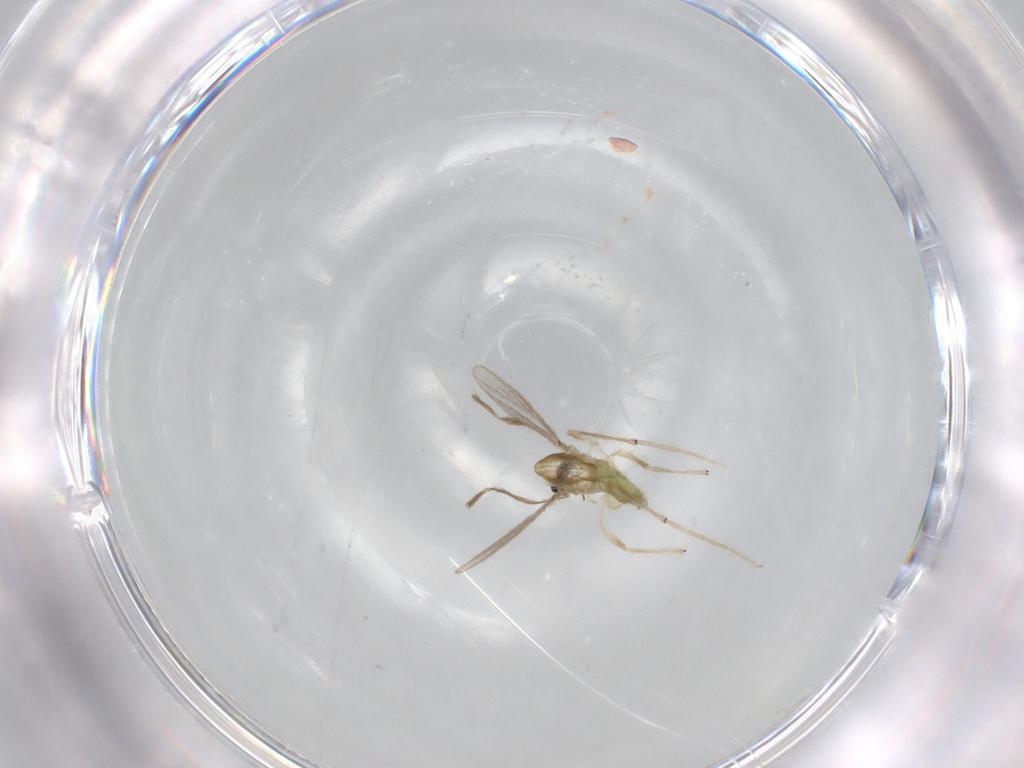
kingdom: Animalia
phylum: Arthropoda
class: Insecta
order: Diptera
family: Chironomidae
